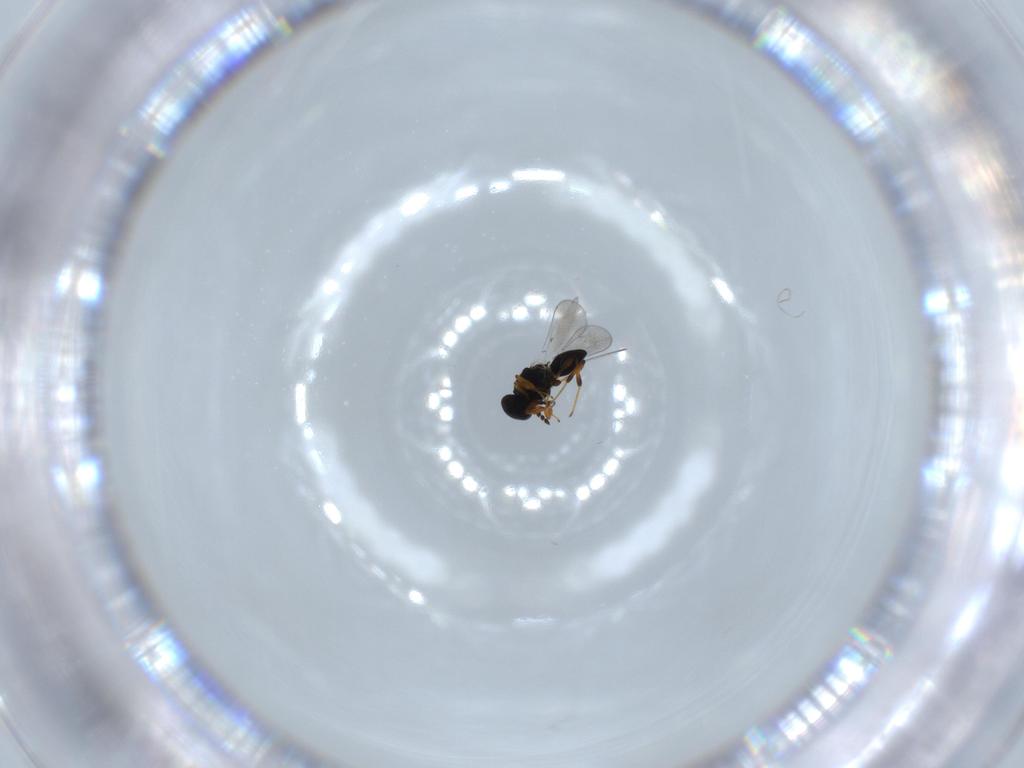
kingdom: Animalia
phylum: Arthropoda
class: Insecta
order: Hymenoptera
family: Platygastridae
